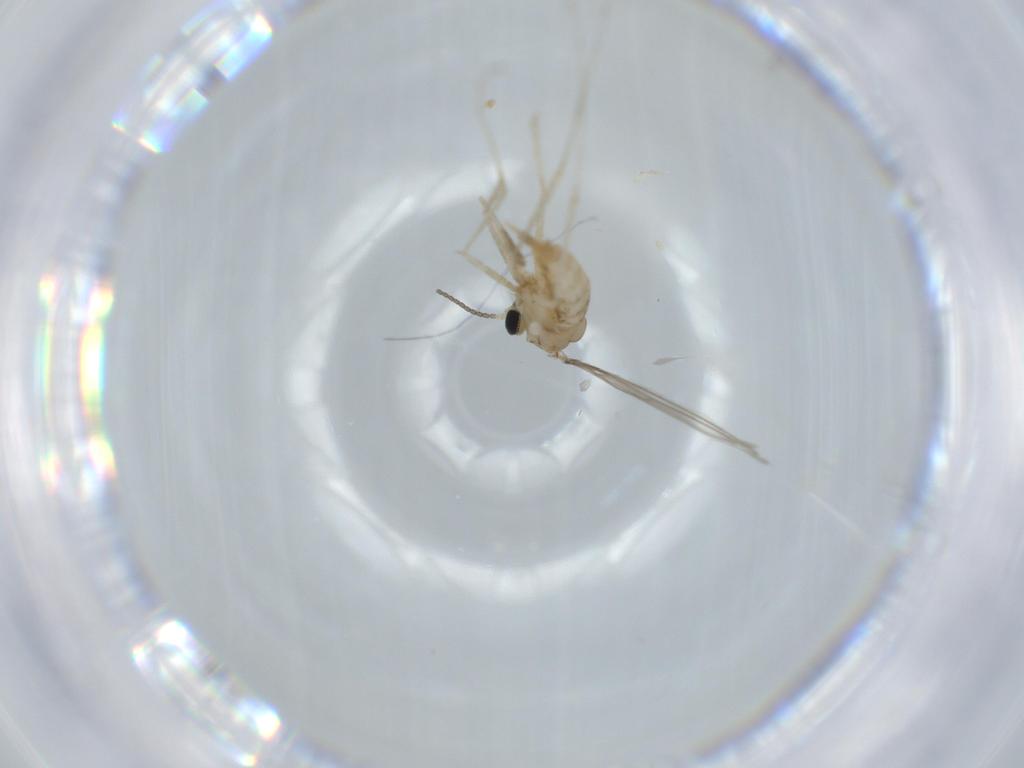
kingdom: Animalia
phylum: Arthropoda
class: Insecta
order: Diptera
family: Cecidomyiidae
